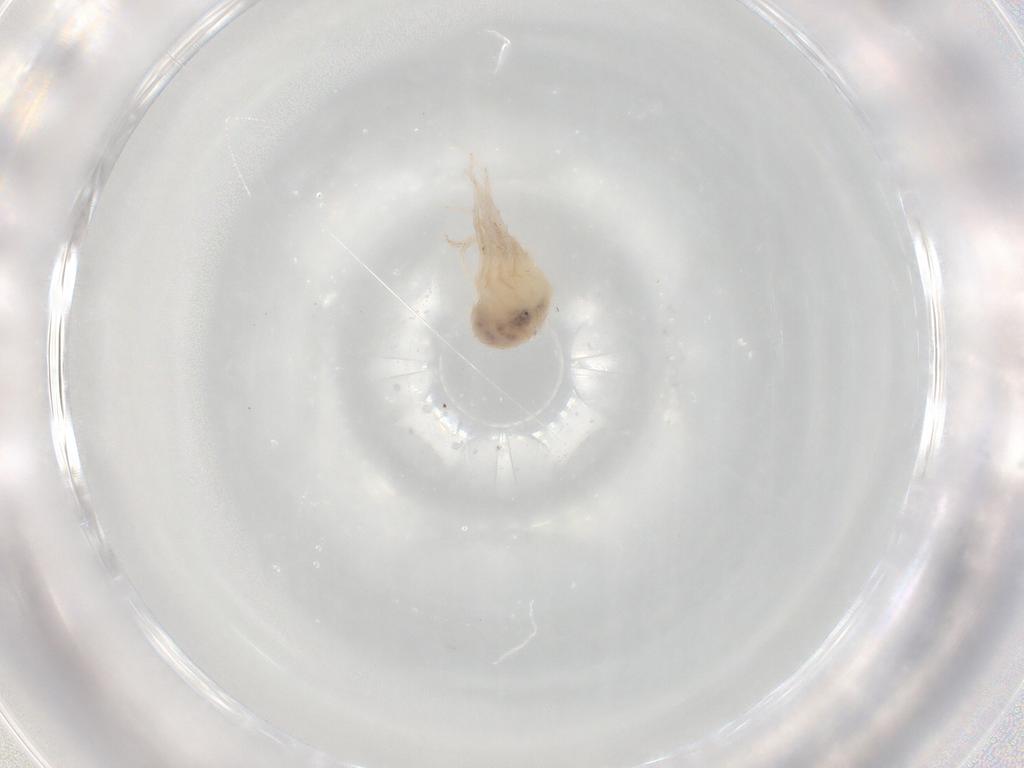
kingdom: Animalia
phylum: Arthropoda
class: Arachnida
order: Trombidiformes
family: Anystidae
